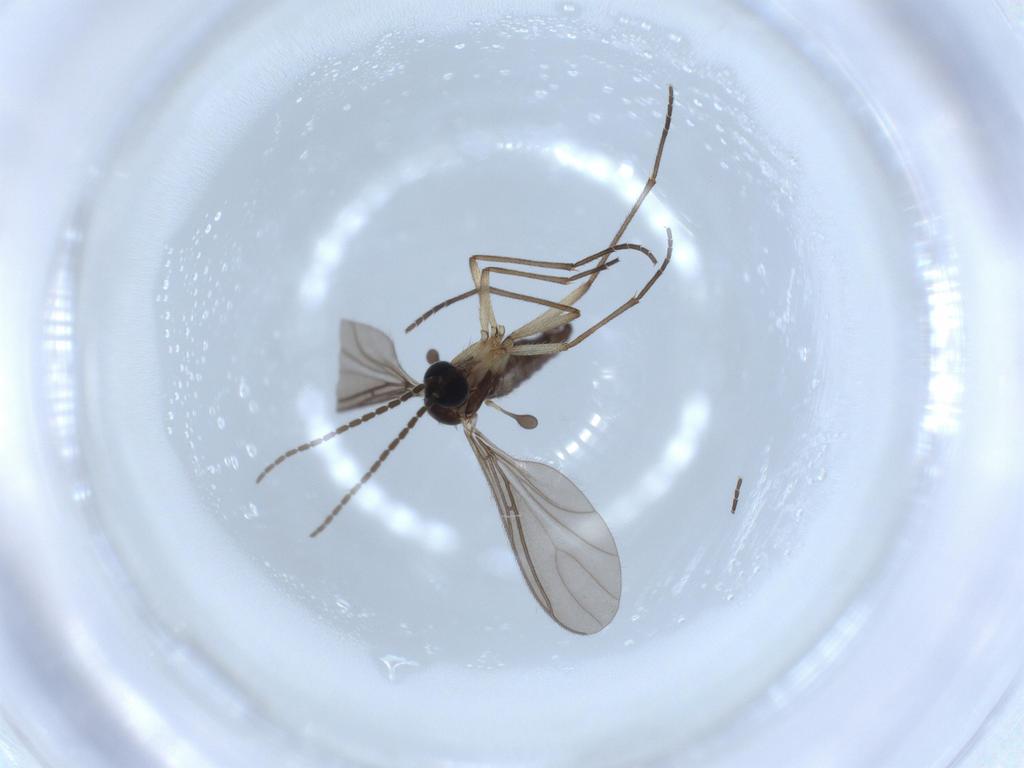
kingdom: Animalia
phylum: Arthropoda
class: Insecta
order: Diptera
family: Sciaridae
